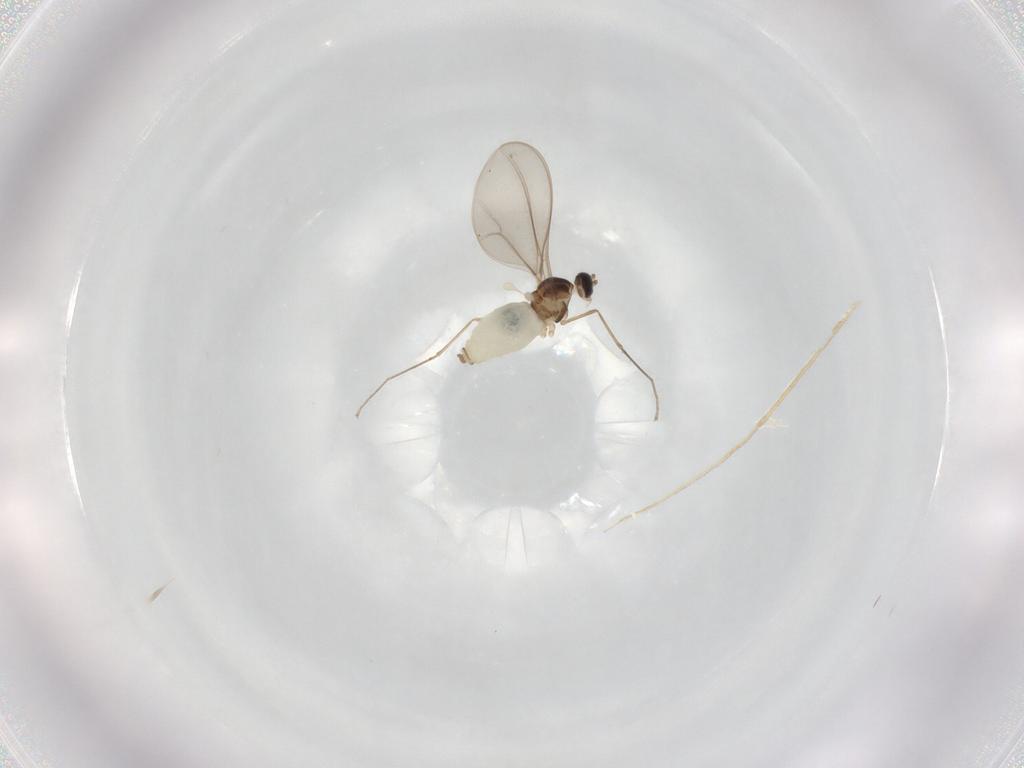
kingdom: Animalia
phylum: Arthropoda
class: Insecta
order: Diptera
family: Cecidomyiidae
